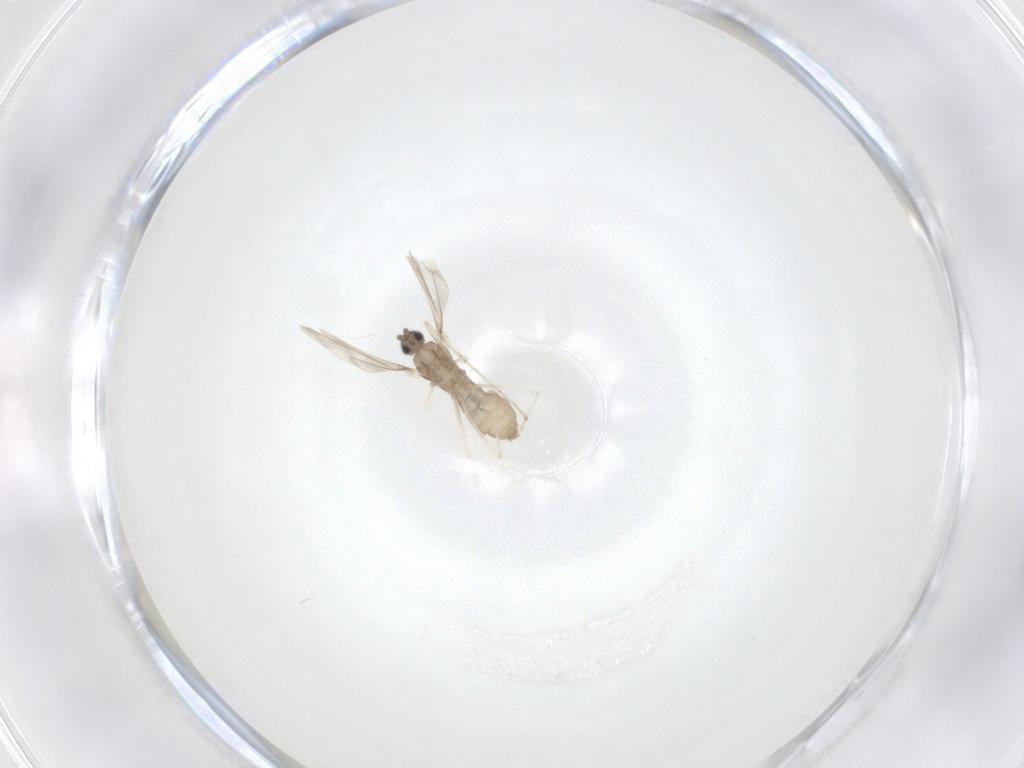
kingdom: Animalia
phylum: Arthropoda
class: Insecta
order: Diptera
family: Cecidomyiidae
